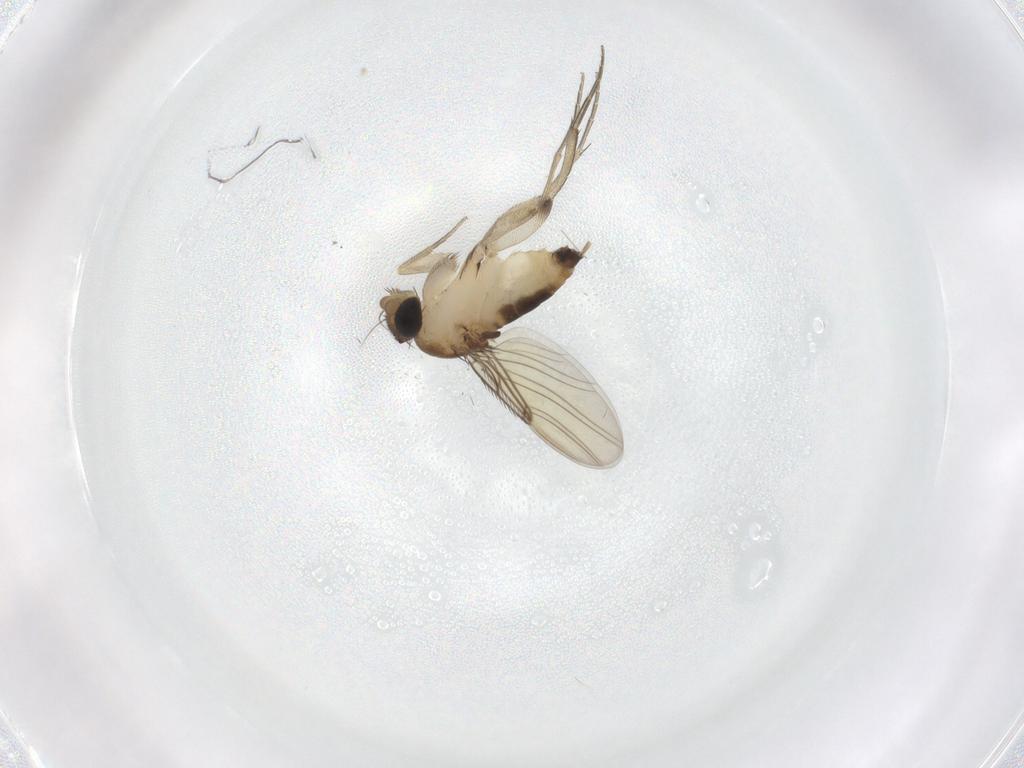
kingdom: Animalia
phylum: Arthropoda
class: Insecta
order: Diptera
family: Phoridae
